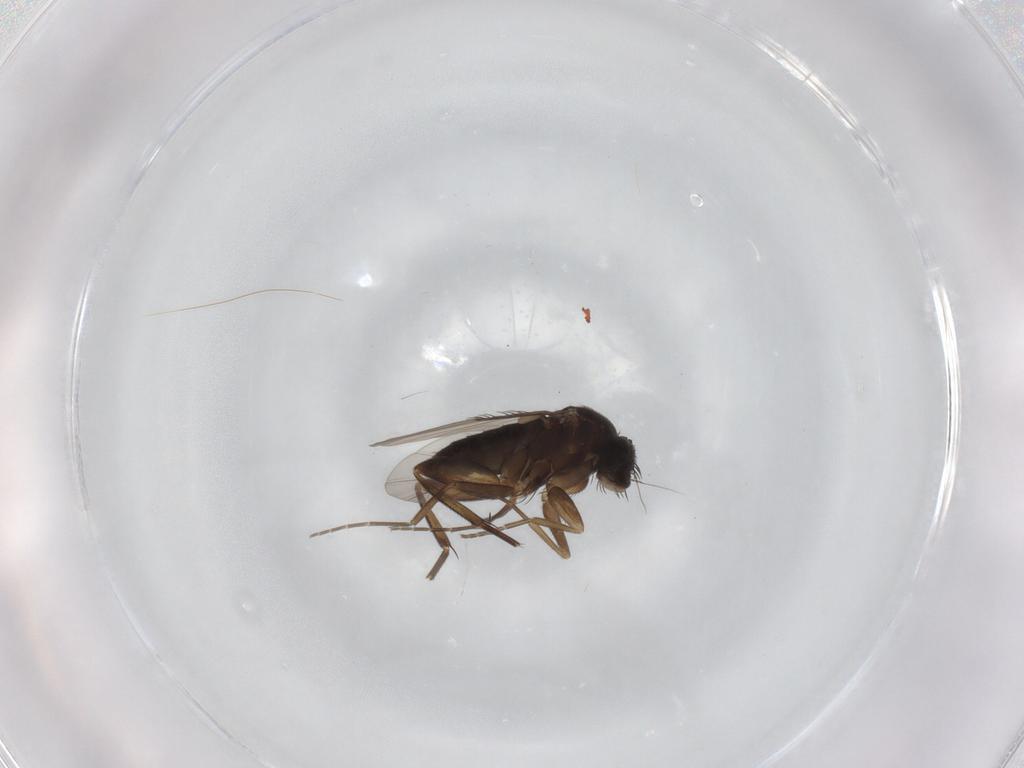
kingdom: Animalia
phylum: Arthropoda
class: Insecta
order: Diptera
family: Phoridae
